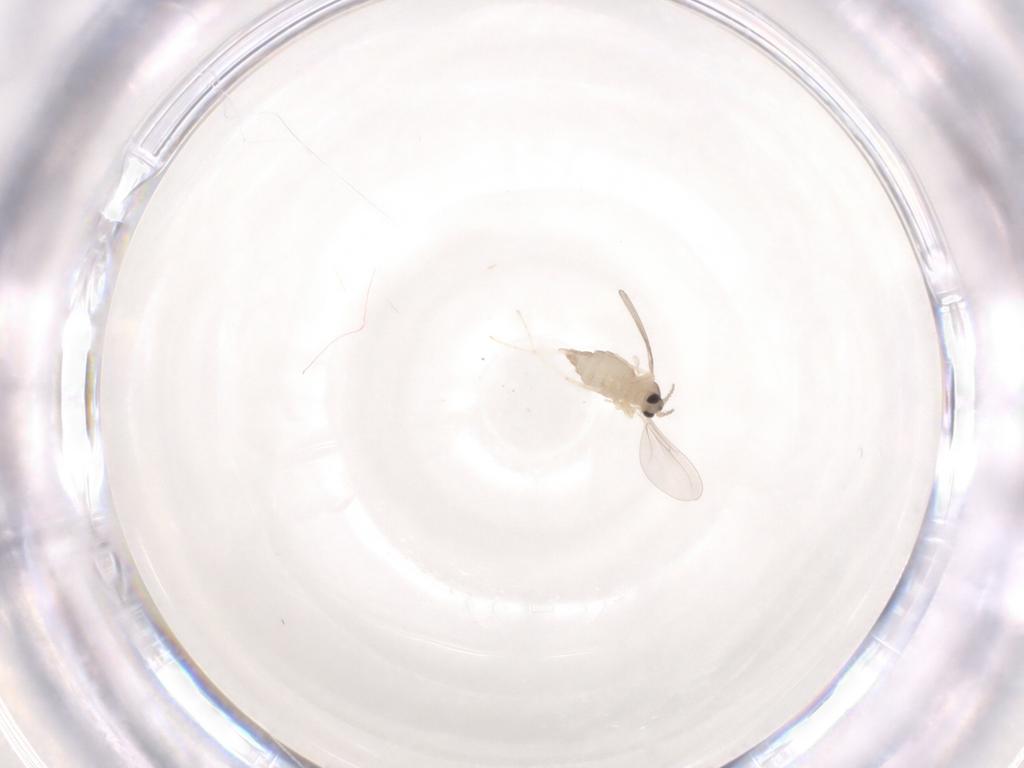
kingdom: Animalia
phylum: Arthropoda
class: Insecta
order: Diptera
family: Cecidomyiidae
